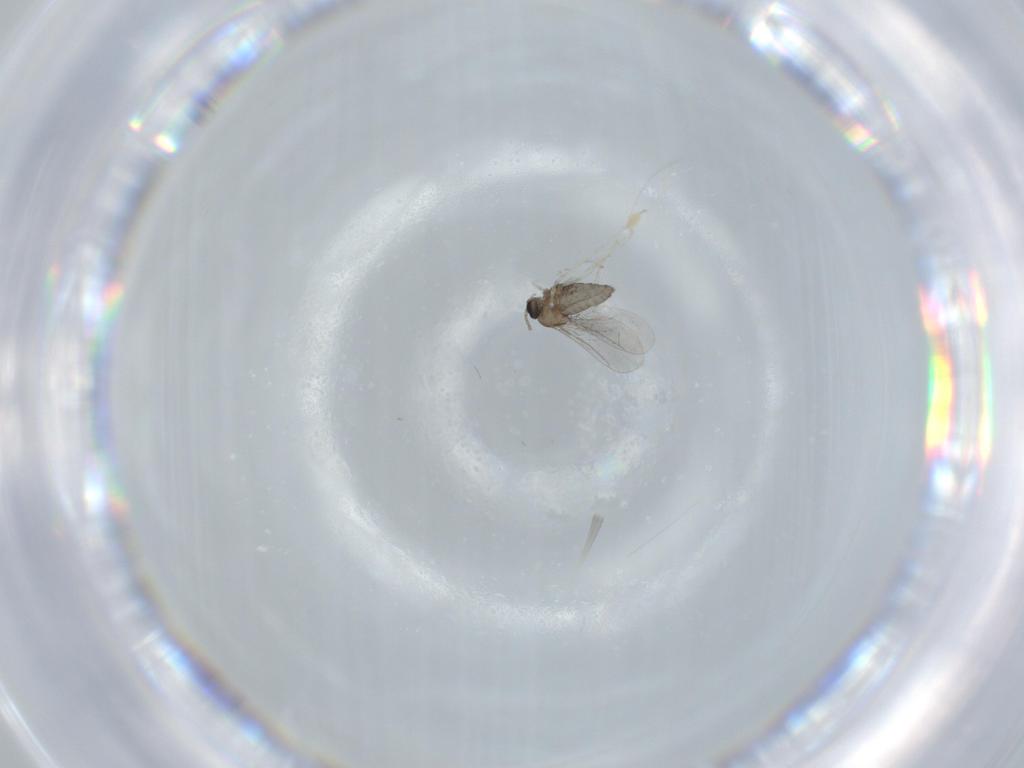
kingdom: Animalia
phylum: Arthropoda
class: Insecta
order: Diptera
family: Cecidomyiidae
